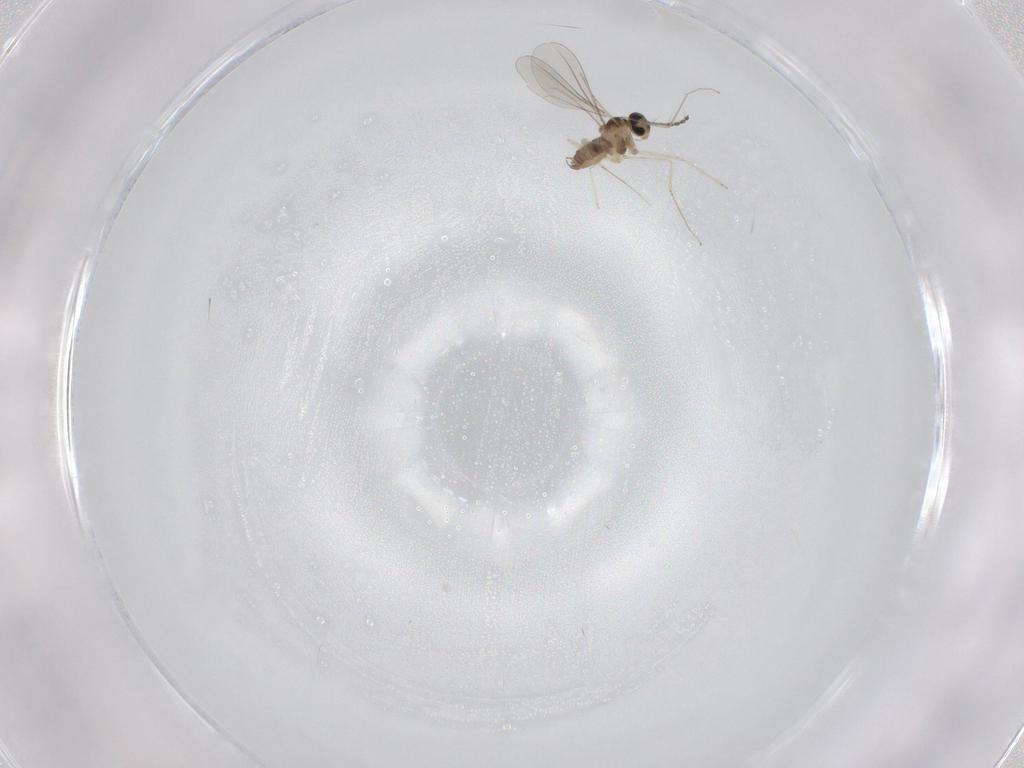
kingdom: Animalia
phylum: Arthropoda
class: Insecta
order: Diptera
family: Cecidomyiidae
